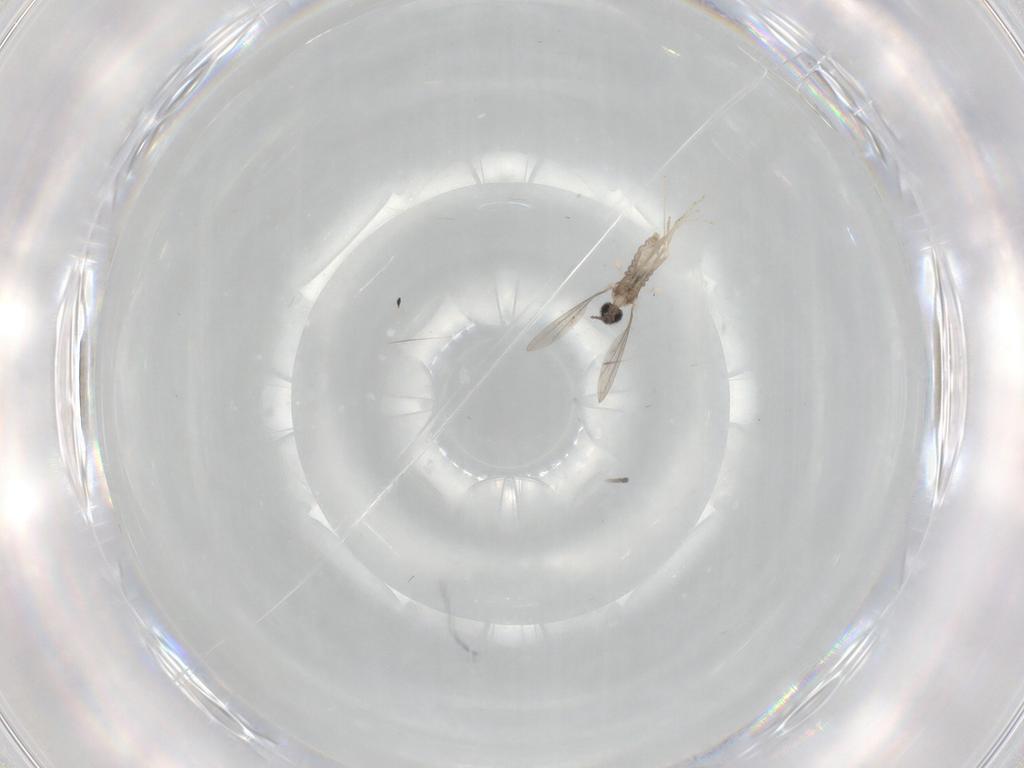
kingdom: Animalia
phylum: Arthropoda
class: Insecta
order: Diptera
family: Cecidomyiidae
